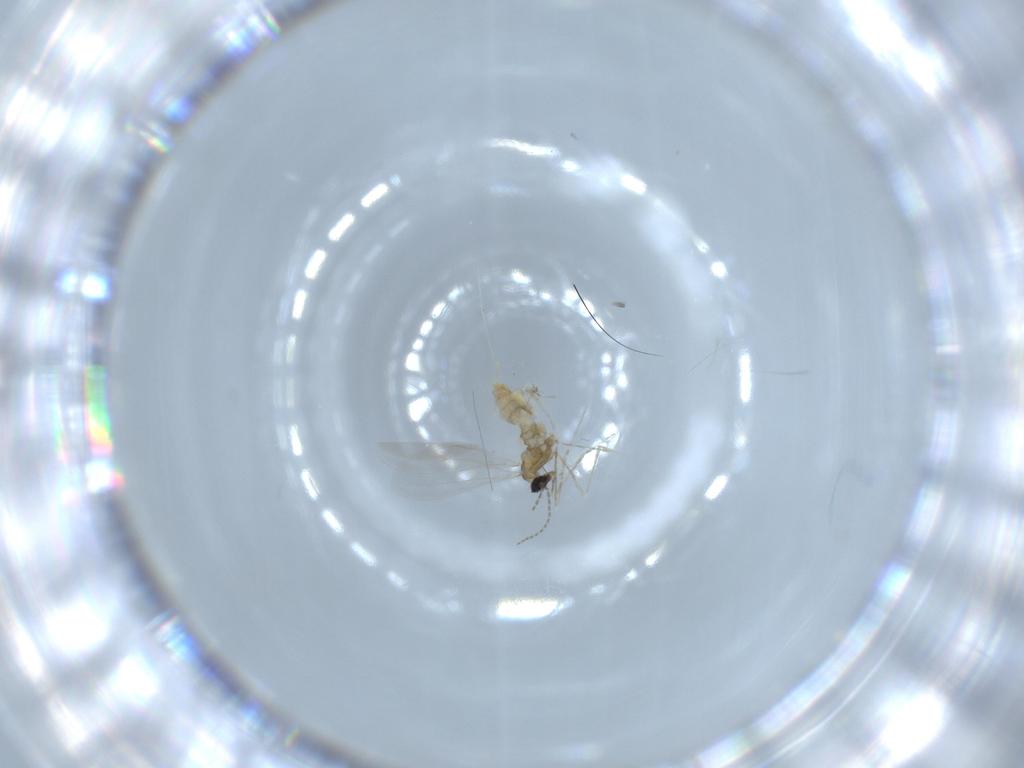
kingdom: Animalia
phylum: Arthropoda
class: Insecta
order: Diptera
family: Cecidomyiidae
